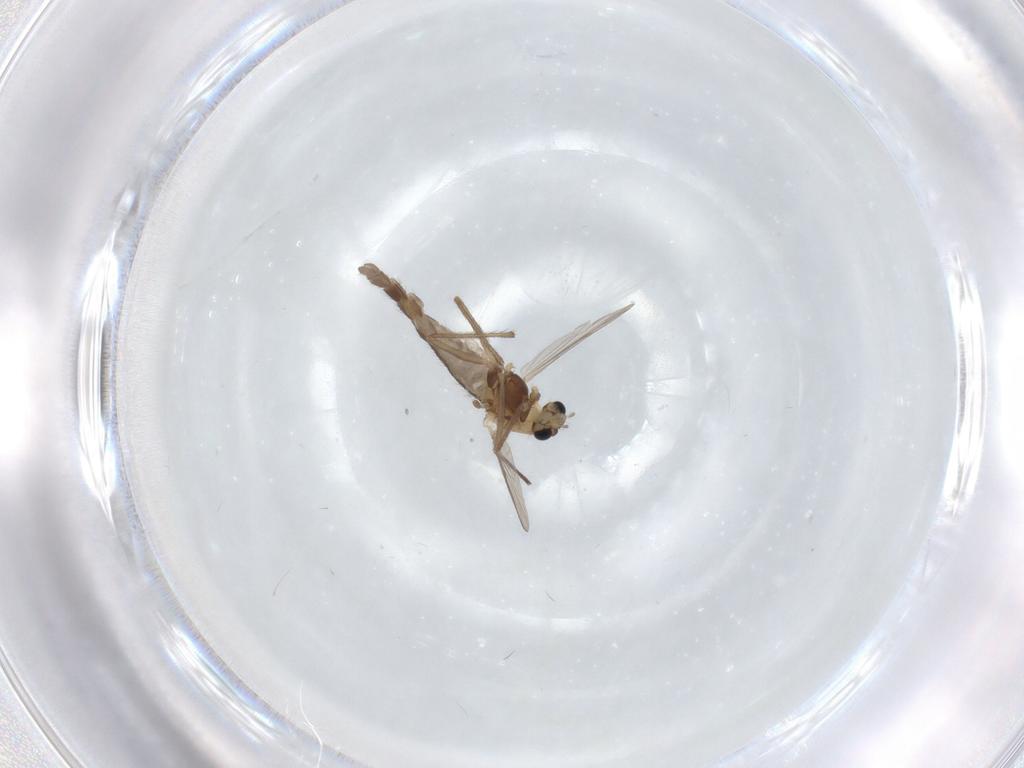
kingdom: Animalia
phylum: Arthropoda
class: Insecta
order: Diptera
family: Chironomidae
